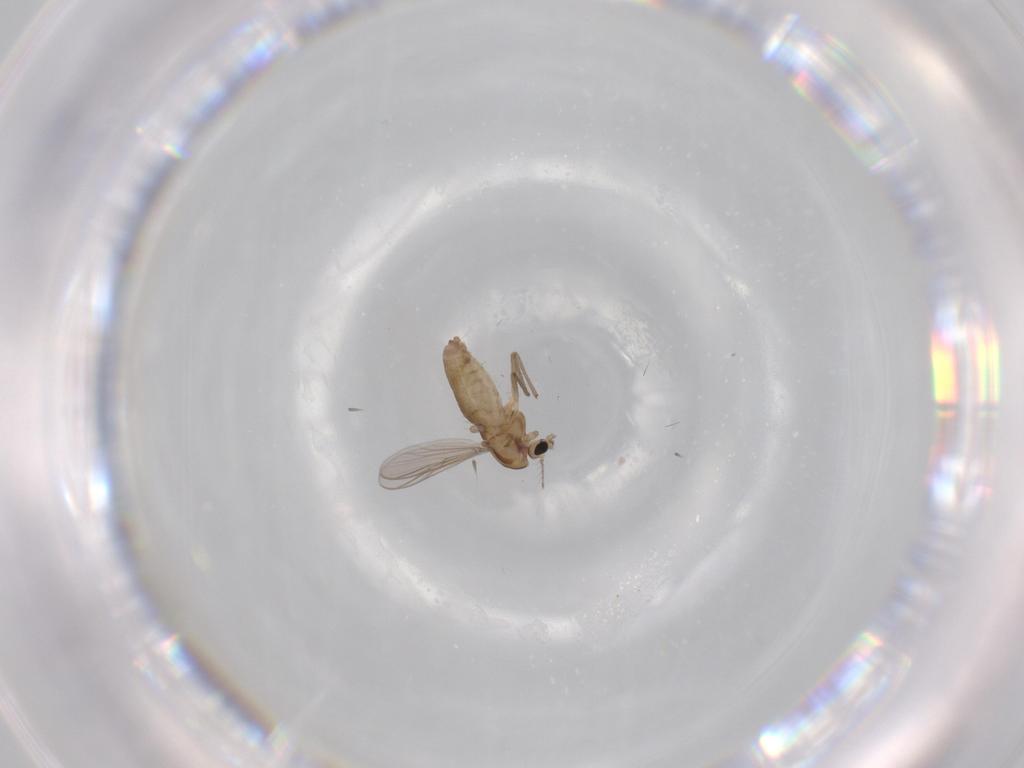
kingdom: Animalia
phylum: Arthropoda
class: Insecta
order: Diptera
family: Chironomidae
